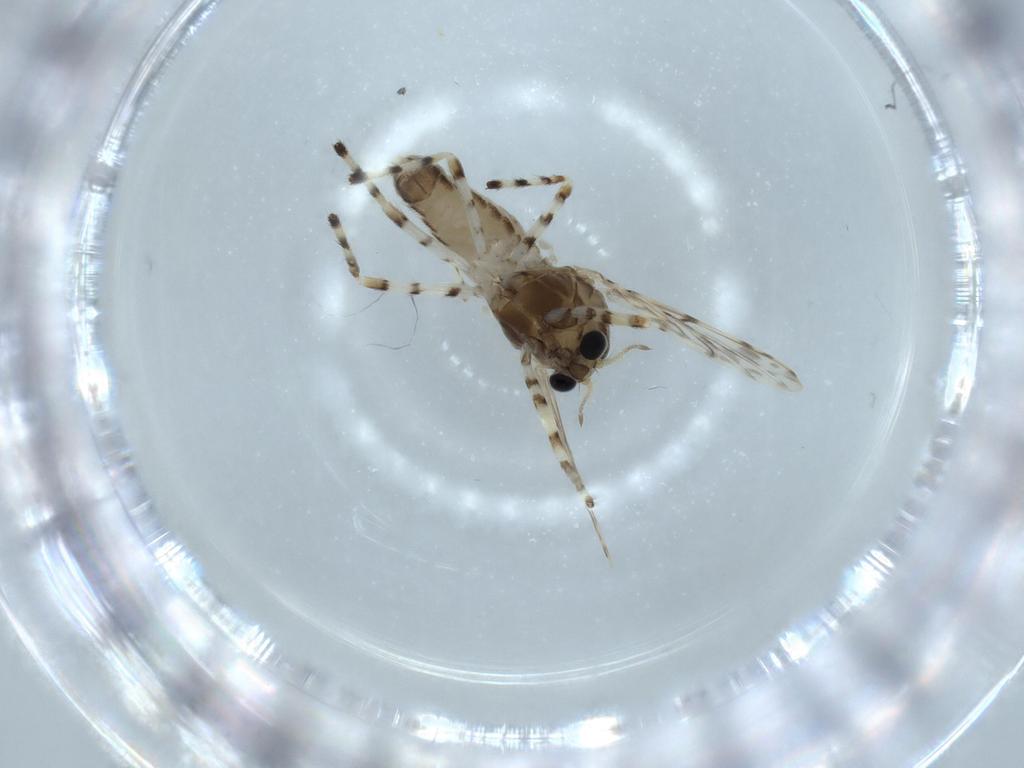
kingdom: Animalia
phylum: Arthropoda
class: Insecta
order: Diptera
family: Chironomidae
